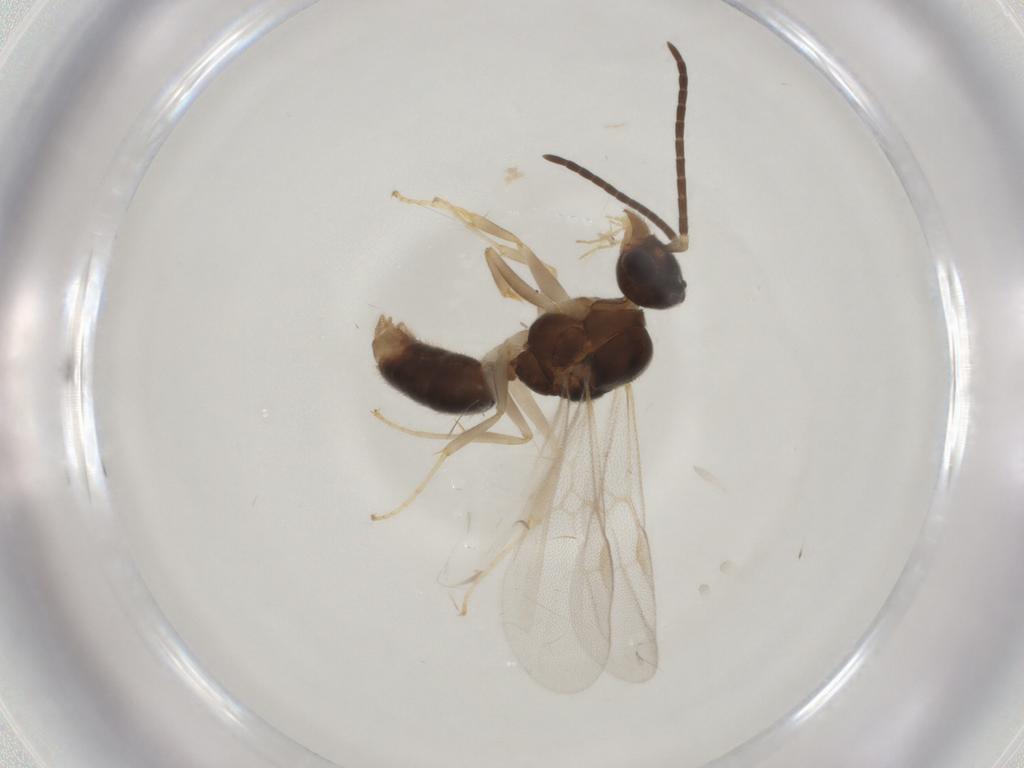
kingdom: Animalia
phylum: Arthropoda
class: Insecta
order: Hymenoptera
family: Formicidae
